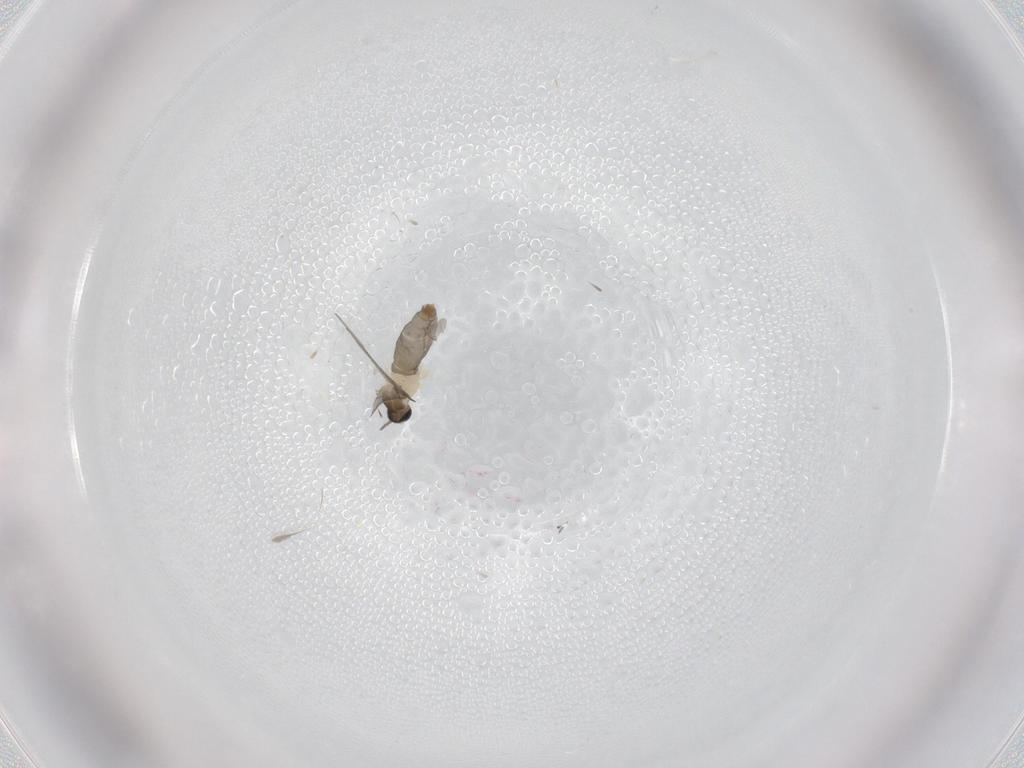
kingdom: Animalia
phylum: Arthropoda
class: Insecta
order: Diptera
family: Cecidomyiidae
